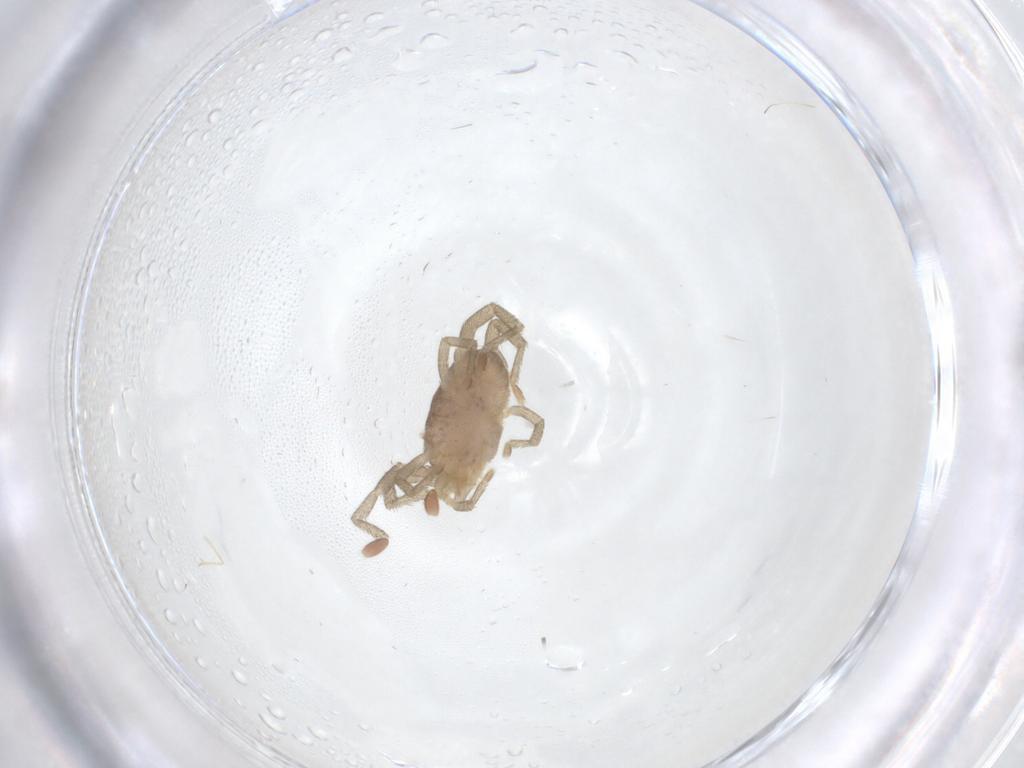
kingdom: Animalia
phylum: Arthropoda
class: Arachnida
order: Trombidiformes
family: Erythraeidae
